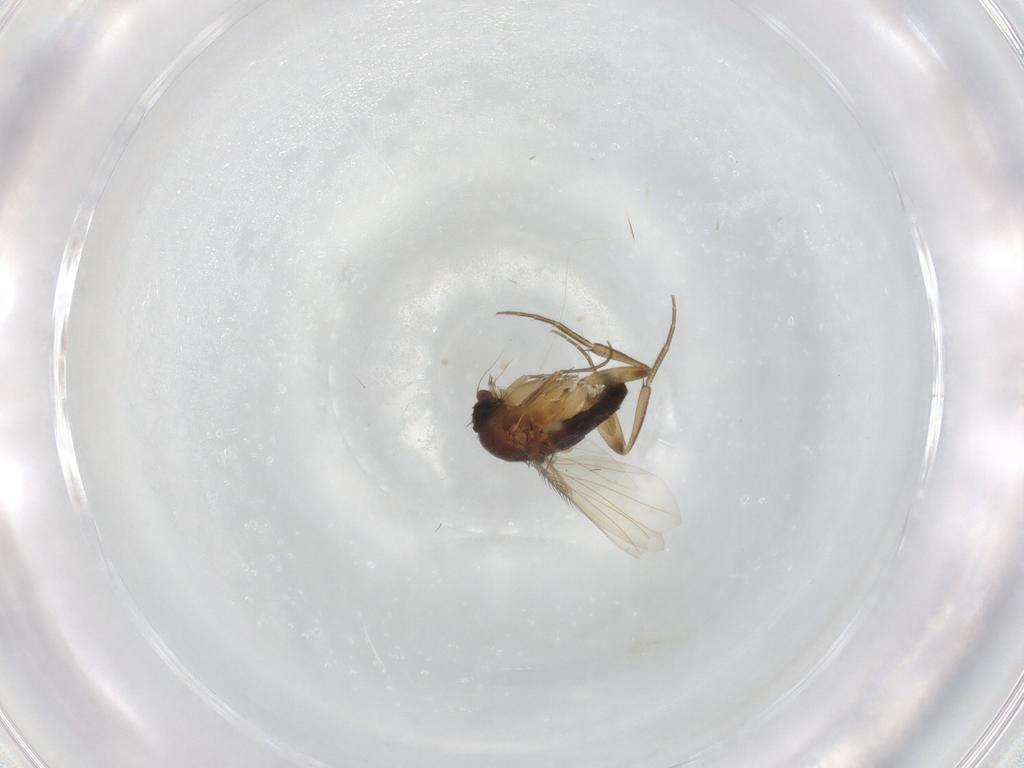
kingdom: Animalia
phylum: Arthropoda
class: Insecta
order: Diptera
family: Phoridae
